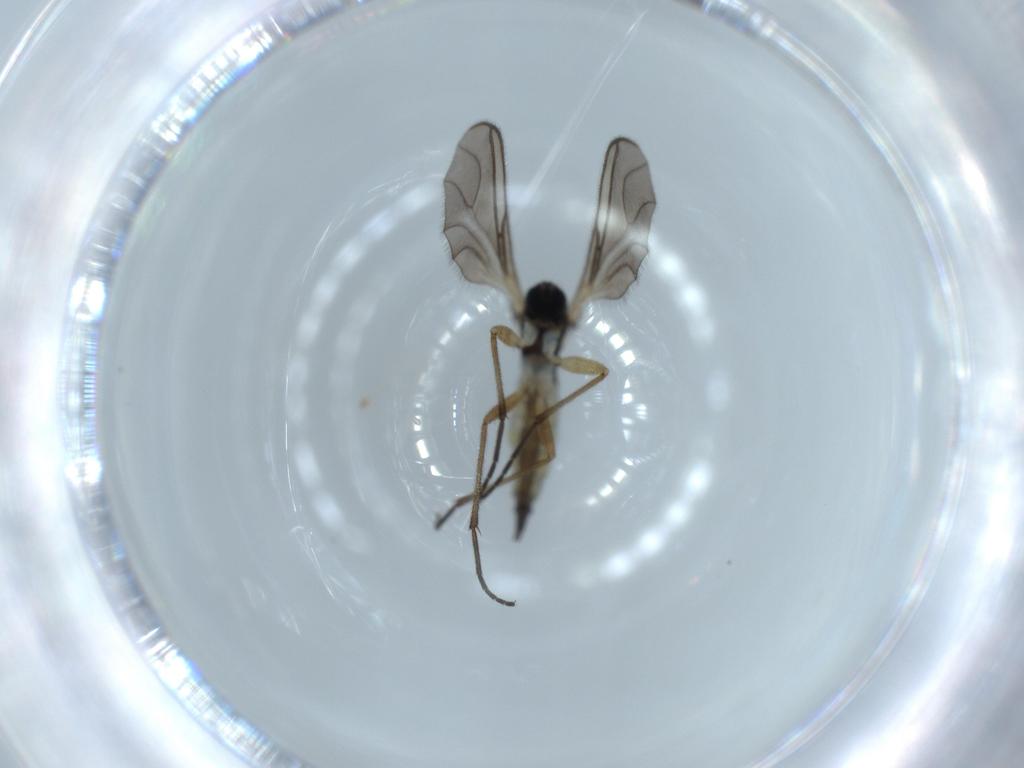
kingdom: Animalia
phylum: Arthropoda
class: Insecta
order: Diptera
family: Sciaridae
